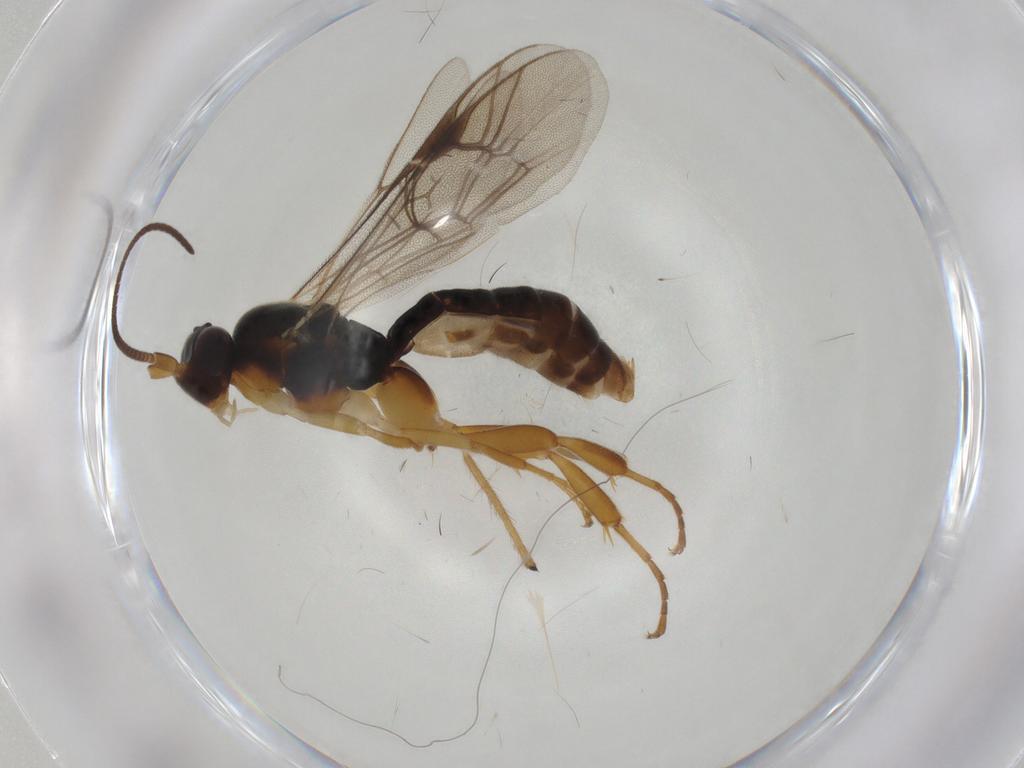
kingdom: Animalia
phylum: Arthropoda
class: Insecta
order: Hymenoptera
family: Ichneumonidae
